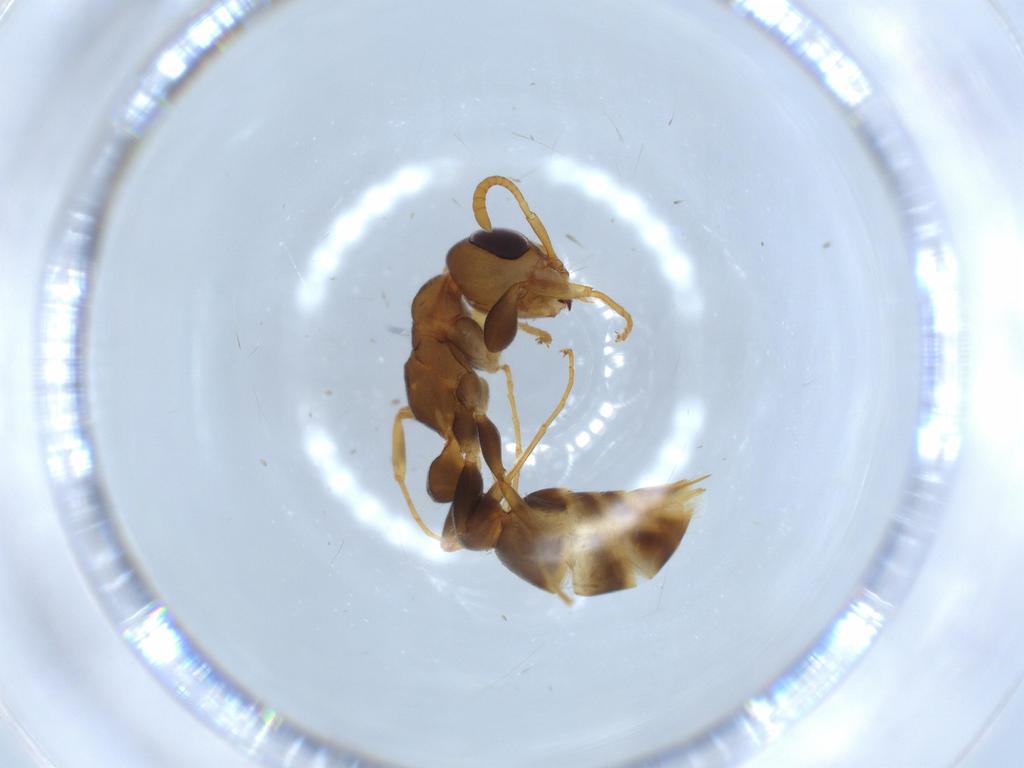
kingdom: Animalia
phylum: Arthropoda
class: Insecta
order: Hymenoptera
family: Formicidae
